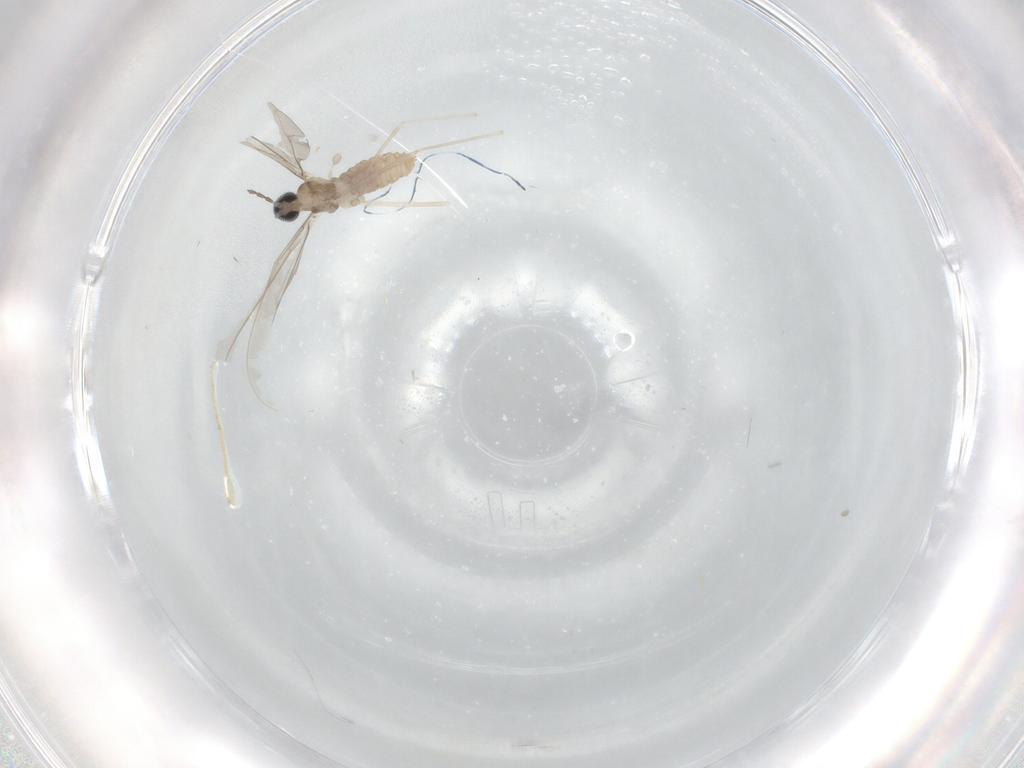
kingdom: Animalia
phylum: Arthropoda
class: Insecta
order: Diptera
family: Cecidomyiidae
